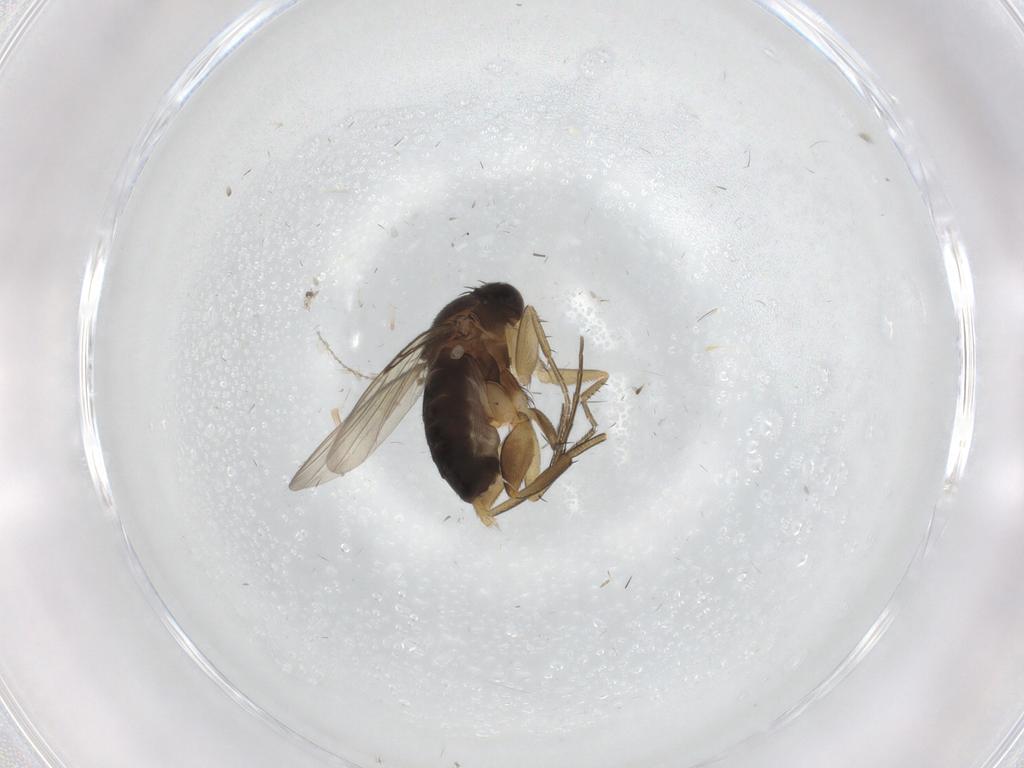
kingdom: Animalia
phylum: Arthropoda
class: Insecta
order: Diptera
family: Phoridae
